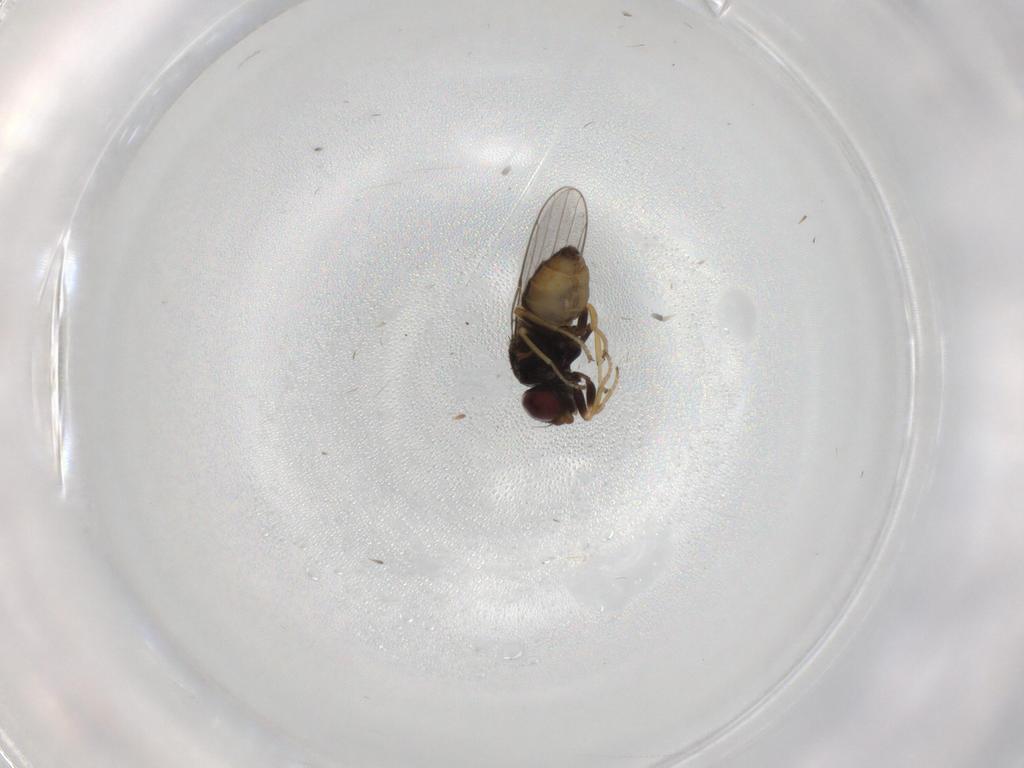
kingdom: Animalia
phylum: Arthropoda
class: Insecta
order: Diptera
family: Chloropidae
